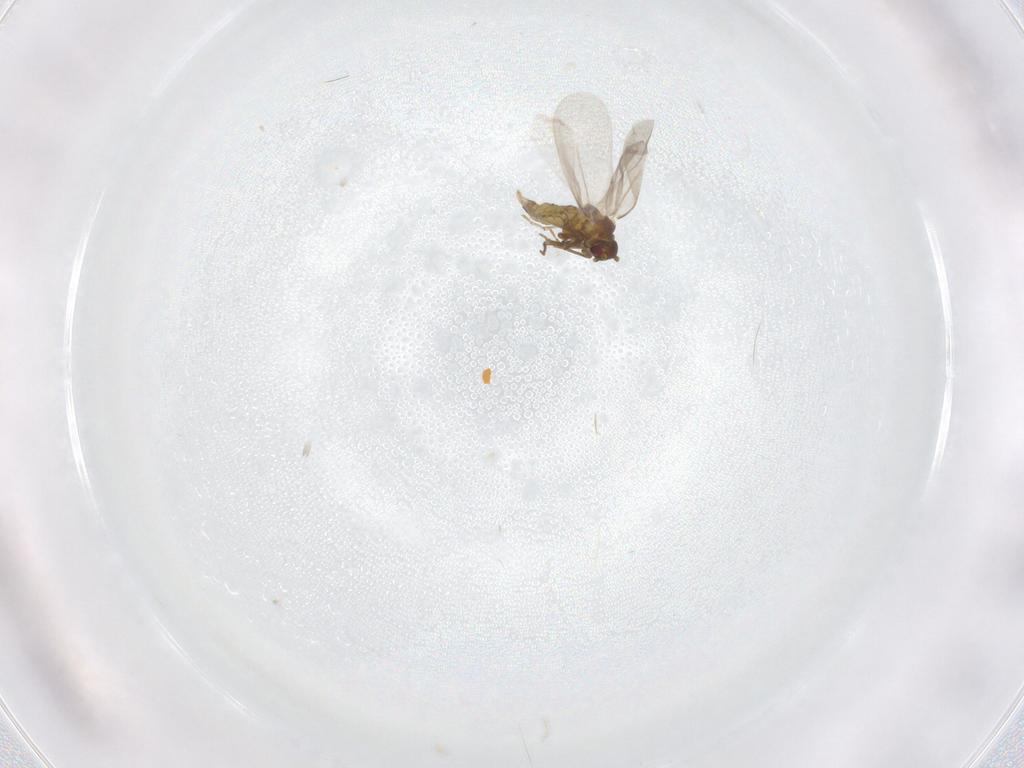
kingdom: Animalia
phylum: Arthropoda
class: Insecta
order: Hemiptera
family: Aleyrodidae
